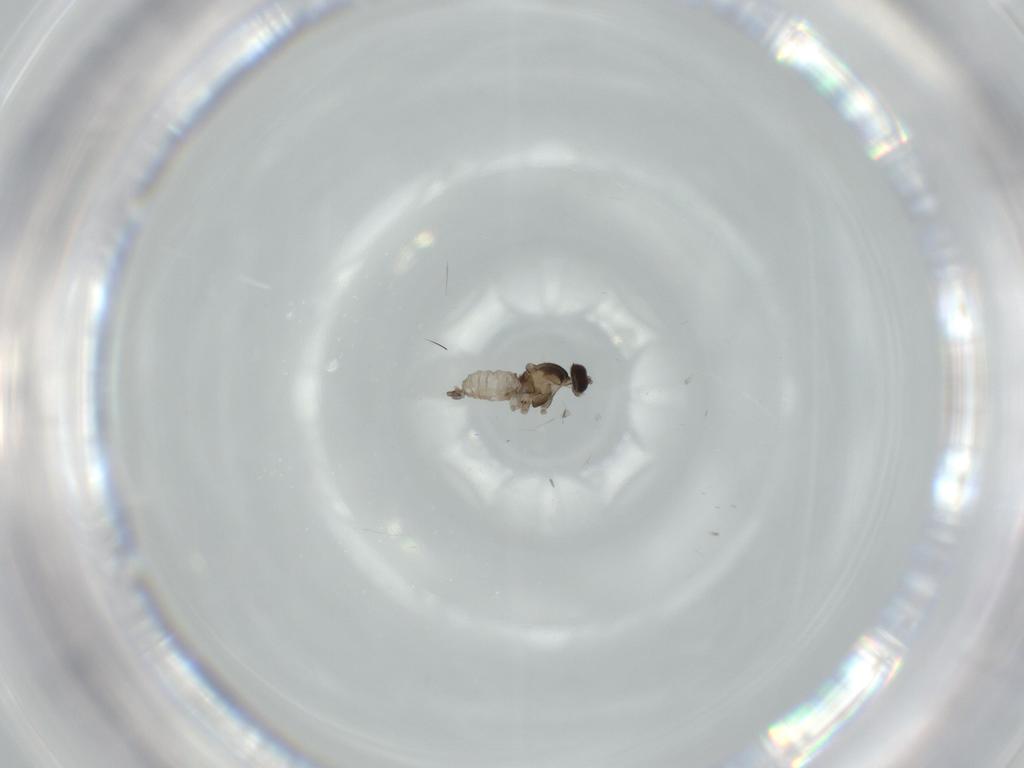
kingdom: Animalia
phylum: Arthropoda
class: Insecta
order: Diptera
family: Cecidomyiidae
